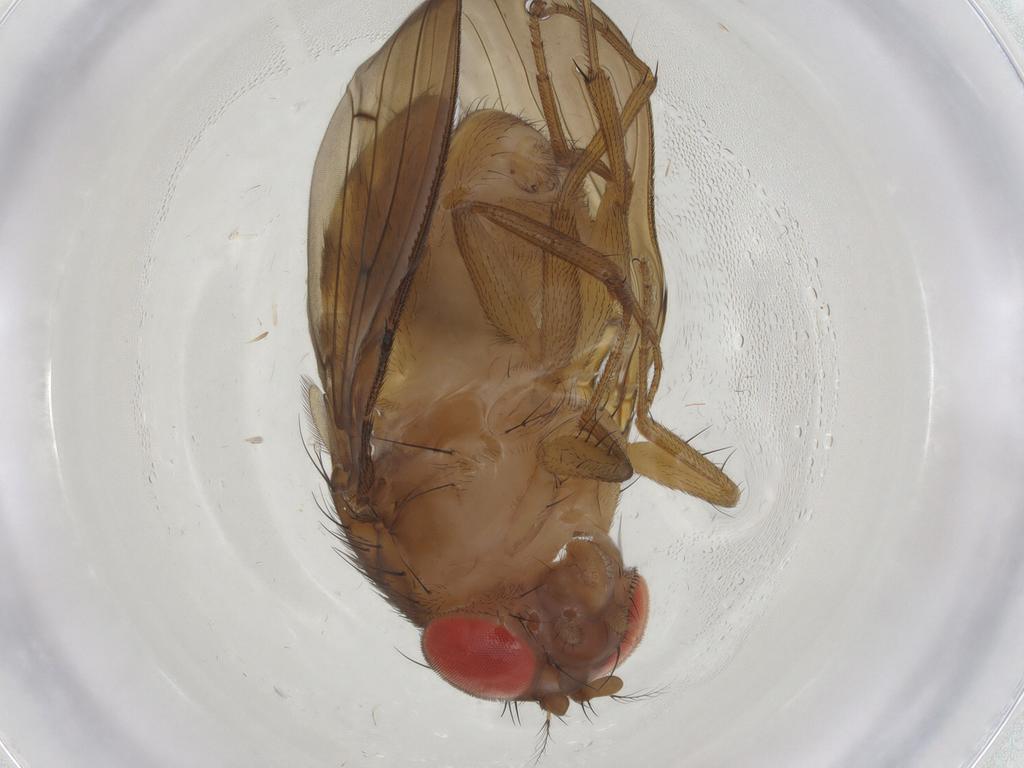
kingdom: Animalia
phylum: Arthropoda
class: Insecta
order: Diptera
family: Drosophilidae
